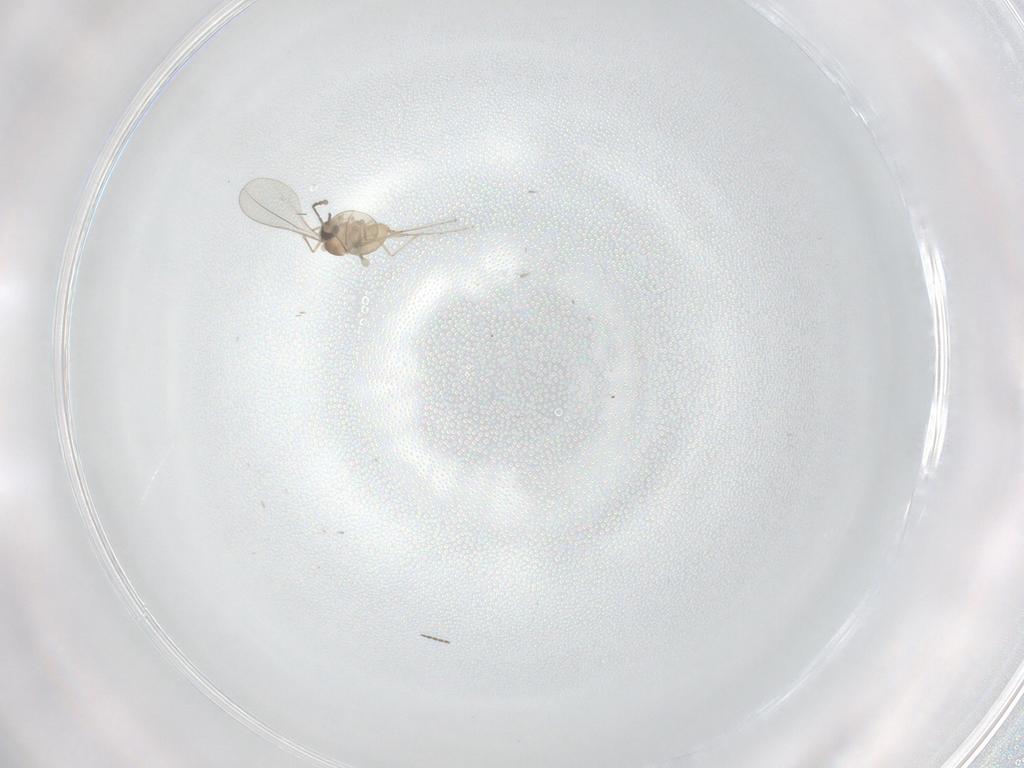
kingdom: Animalia
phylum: Arthropoda
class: Insecta
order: Diptera
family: Cecidomyiidae
